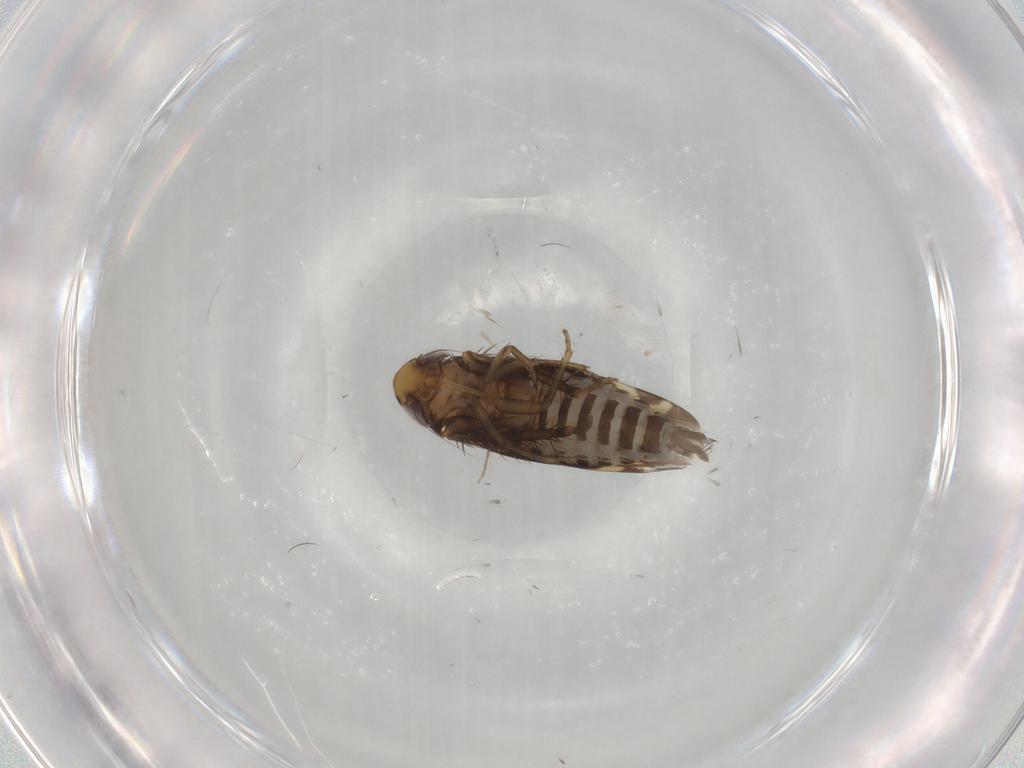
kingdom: Animalia
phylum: Arthropoda
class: Insecta
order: Hemiptera
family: Cicadellidae
